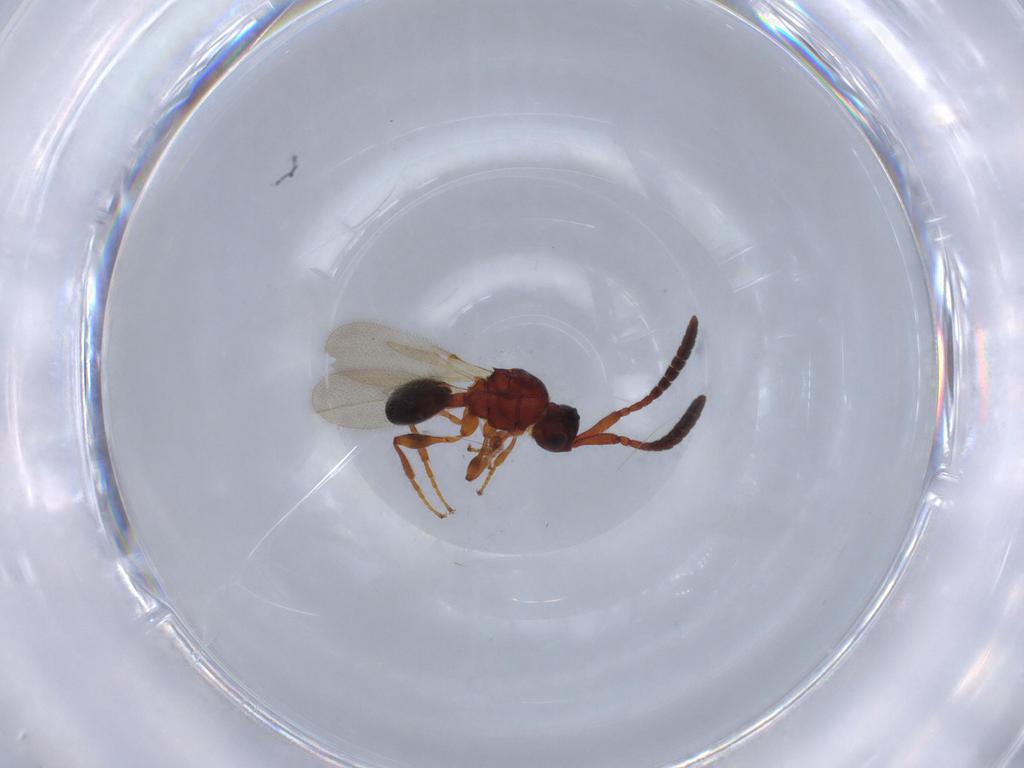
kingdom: Animalia
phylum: Arthropoda
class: Insecta
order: Hymenoptera
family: Diapriidae
